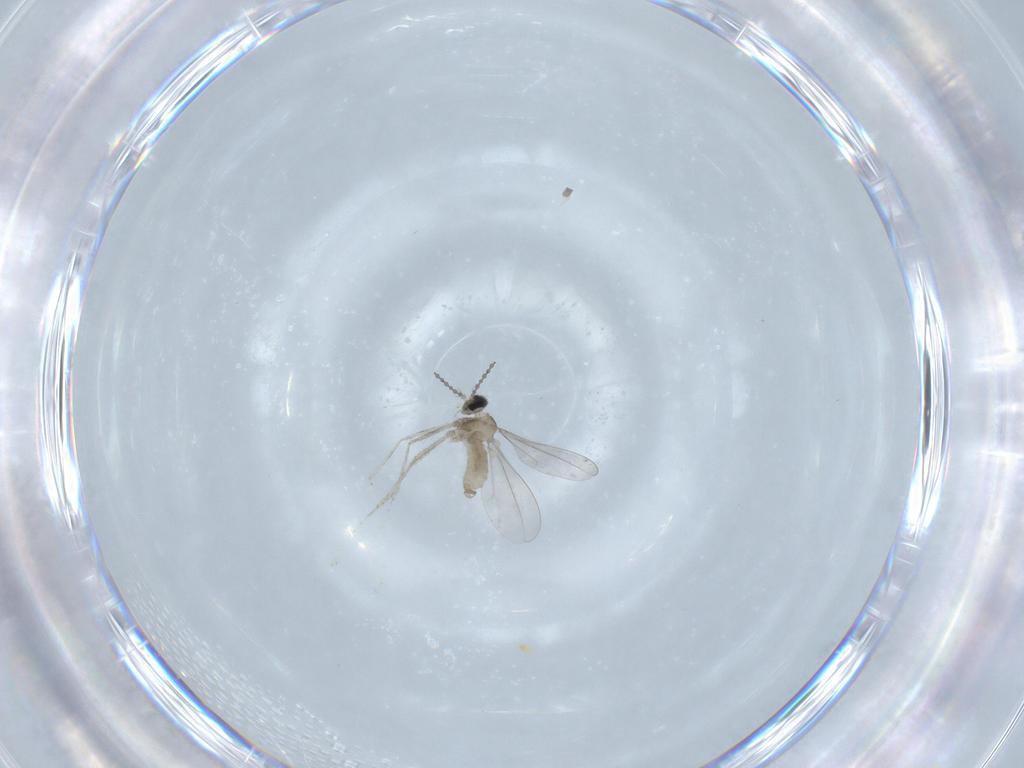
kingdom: Animalia
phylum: Arthropoda
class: Insecta
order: Diptera
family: Cecidomyiidae
